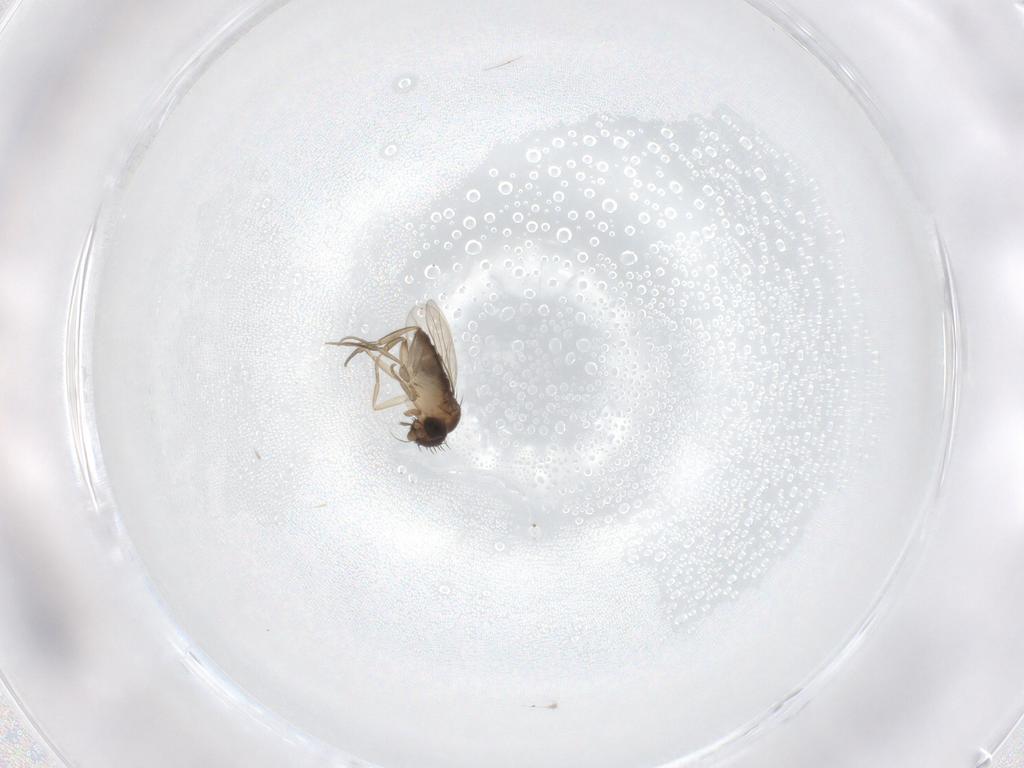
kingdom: Animalia
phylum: Arthropoda
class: Insecta
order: Diptera
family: Phoridae
